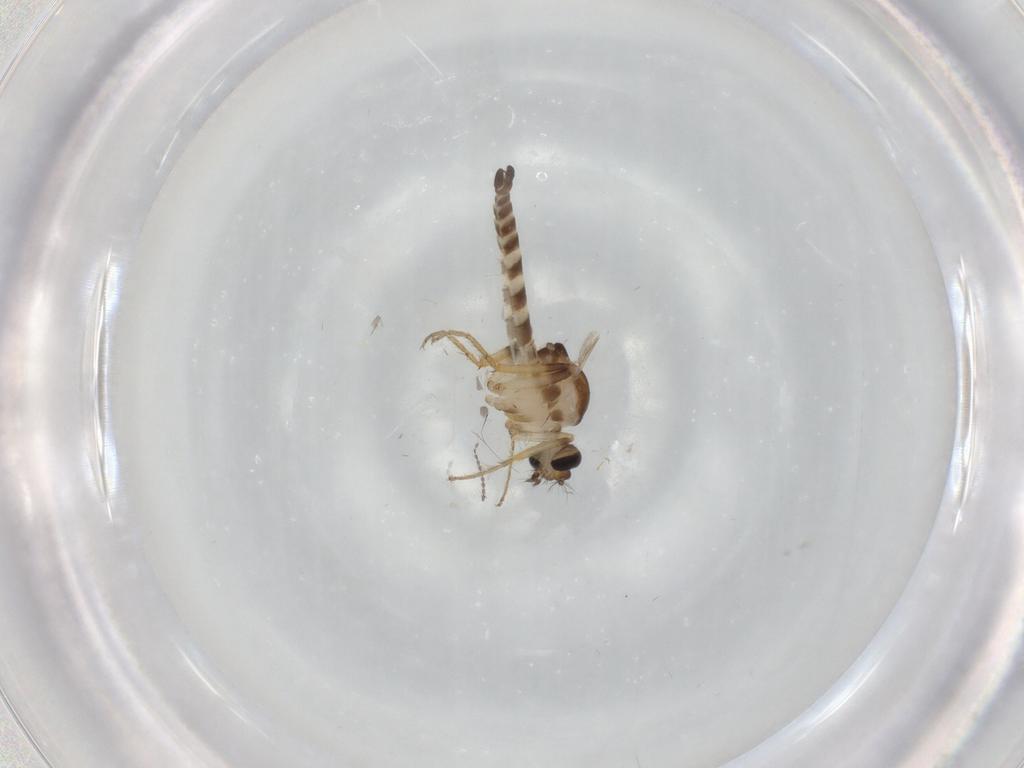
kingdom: Animalia
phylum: Arthropoda
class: Insecta
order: Diptera
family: Ceratopogonidae
